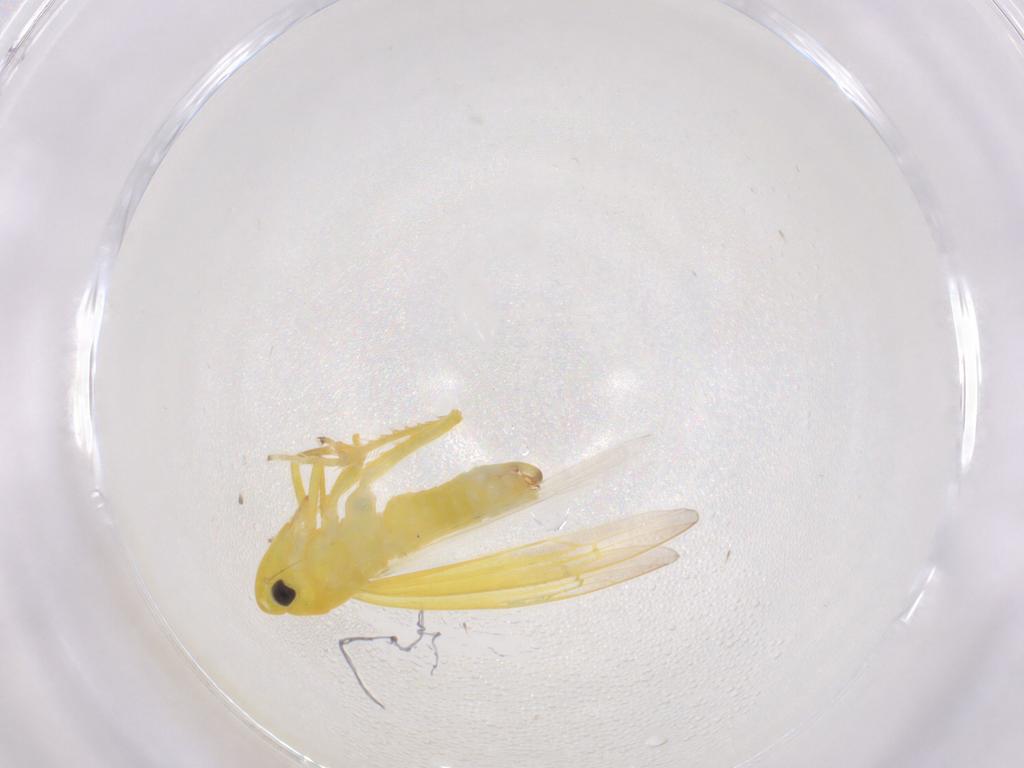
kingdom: Animalia
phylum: Arthropoda
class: Insecta
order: Hemiptera
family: Cicadellidae
